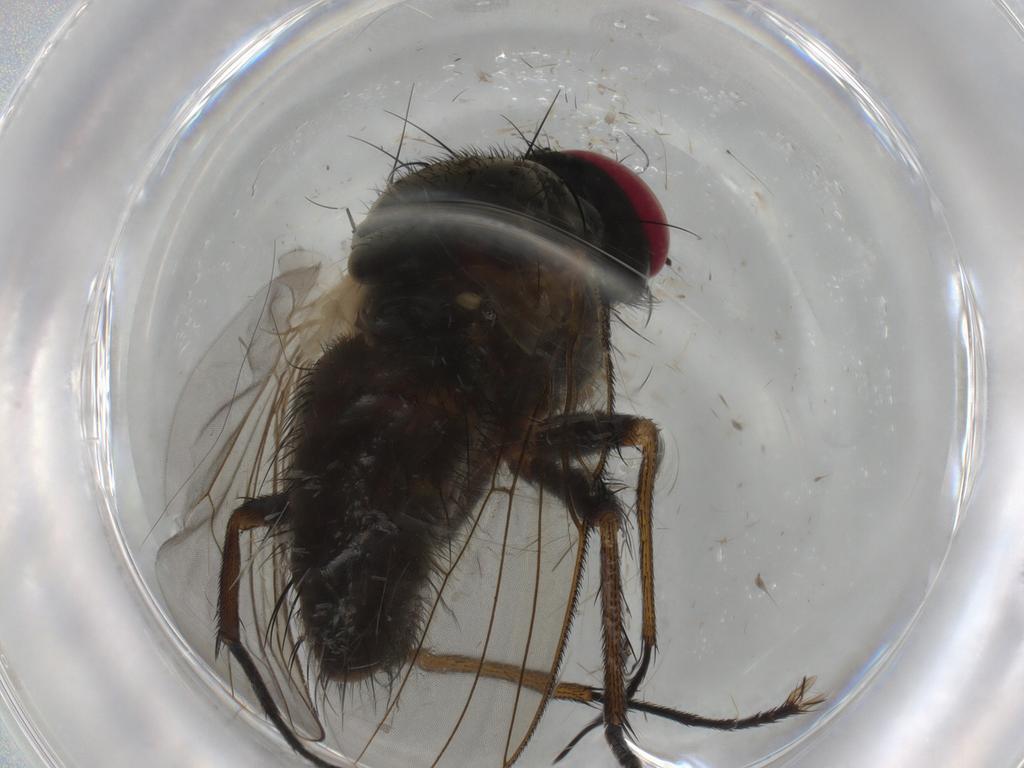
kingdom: Animalia
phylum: Arthropoda
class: Insecta
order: Diptera
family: Muscidae
